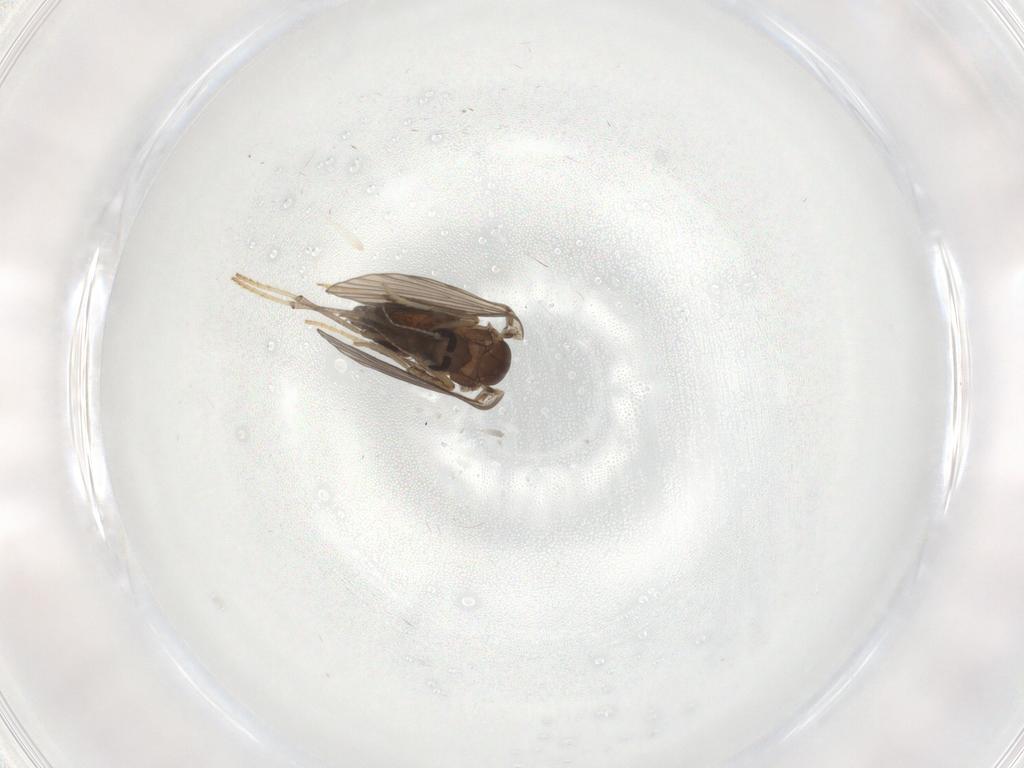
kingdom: Animalia
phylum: Arthropoda
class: Insecta
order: Diptera
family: Psychodidae
